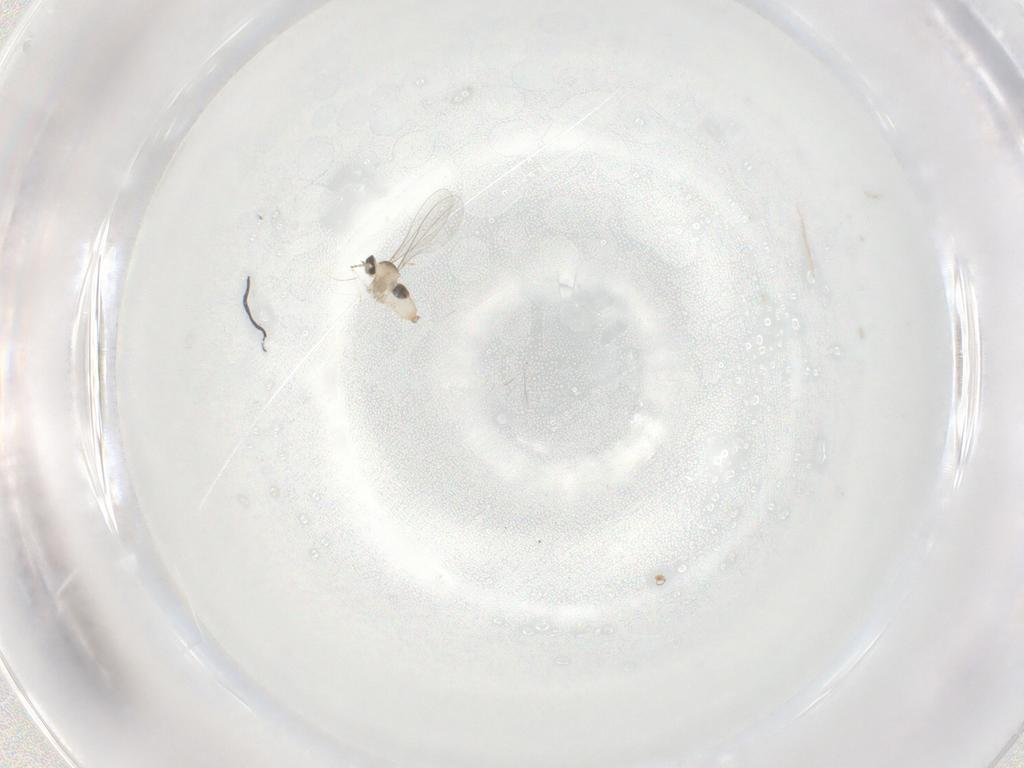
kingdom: Animalia
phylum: Arthropoda
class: Insecta
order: Diptera
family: Cecidomyiidae
